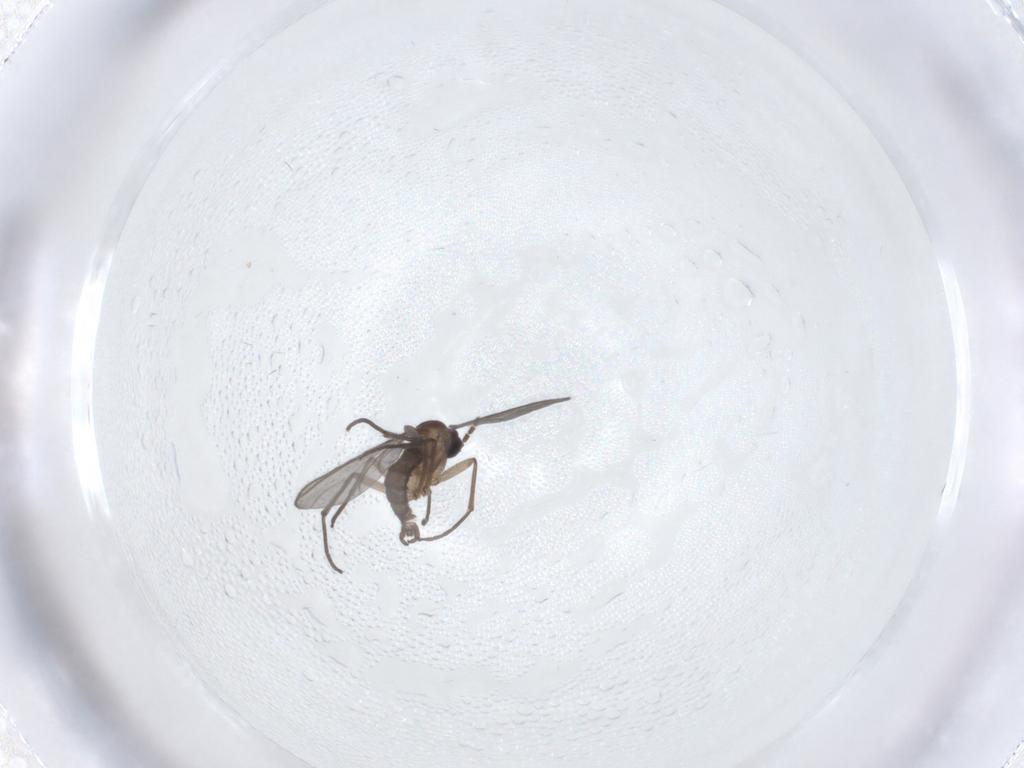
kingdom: Animalia
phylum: Arthropoda
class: Insecta
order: Diptera
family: Sciaridae
